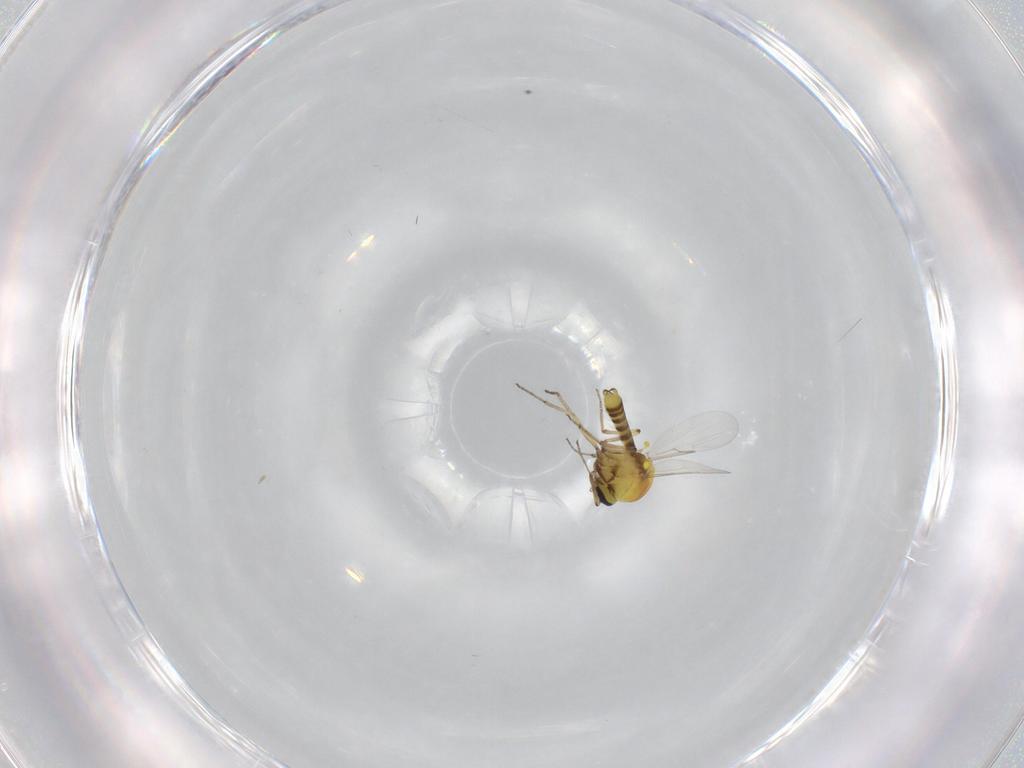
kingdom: Animalia
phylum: Arthropoda
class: Insecta
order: Diptera
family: Ceratopogonidae
